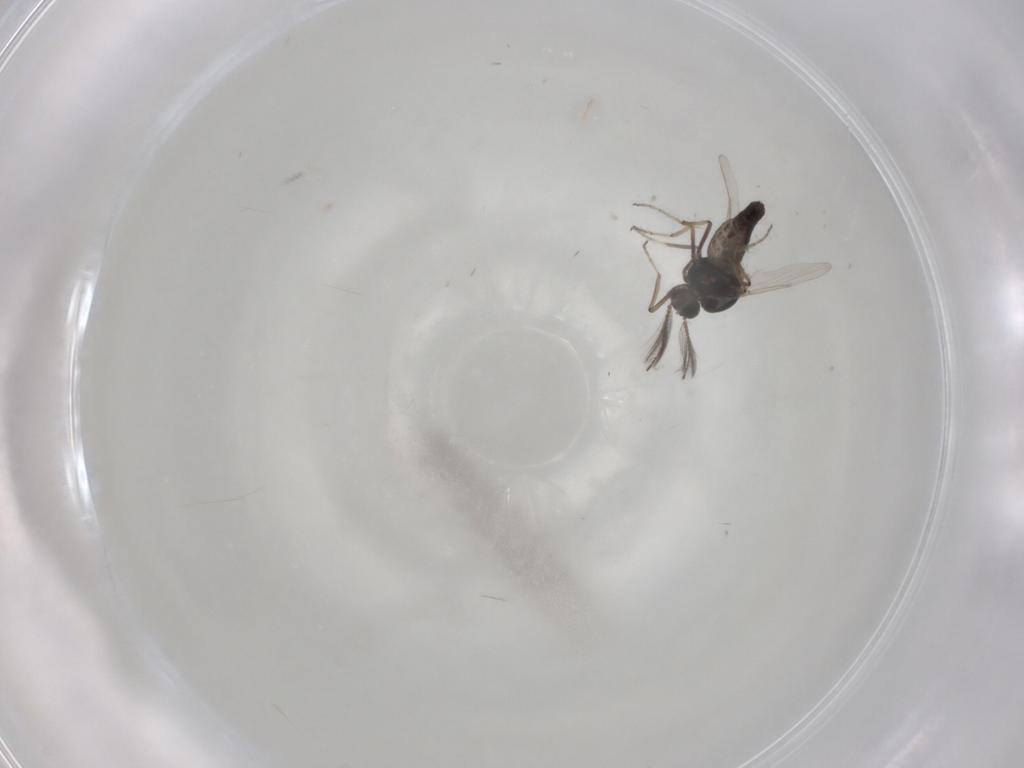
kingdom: Animalia
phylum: Arthropoda
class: Insecta
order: Diptera
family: Ceratopogonidae
